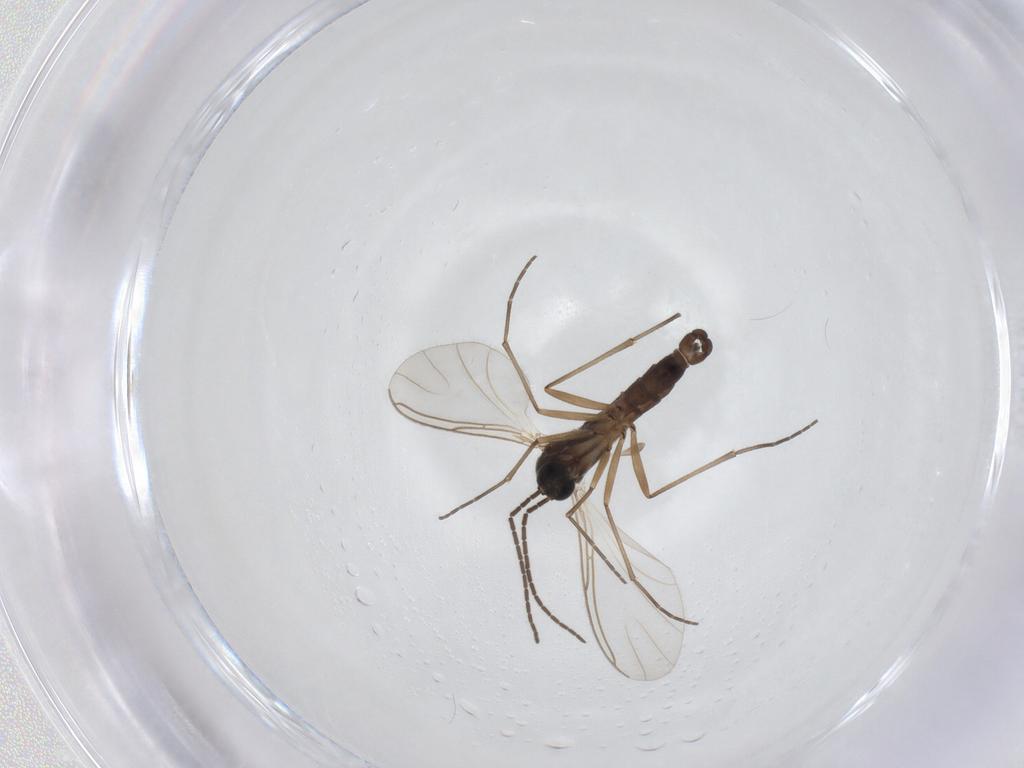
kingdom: Animalia
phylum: Arthropoda
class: Insecta
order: Diptera
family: Sciaridae
